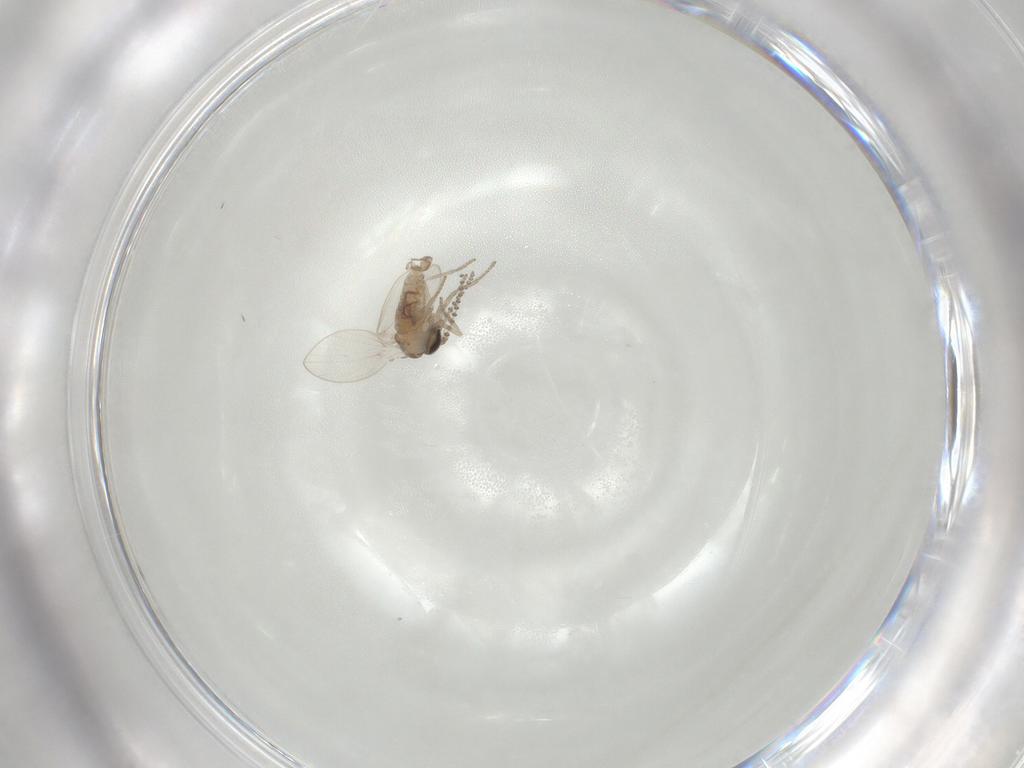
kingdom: Animalia
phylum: Arthropoda
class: Insecta
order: Diptera
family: Psychodidae
